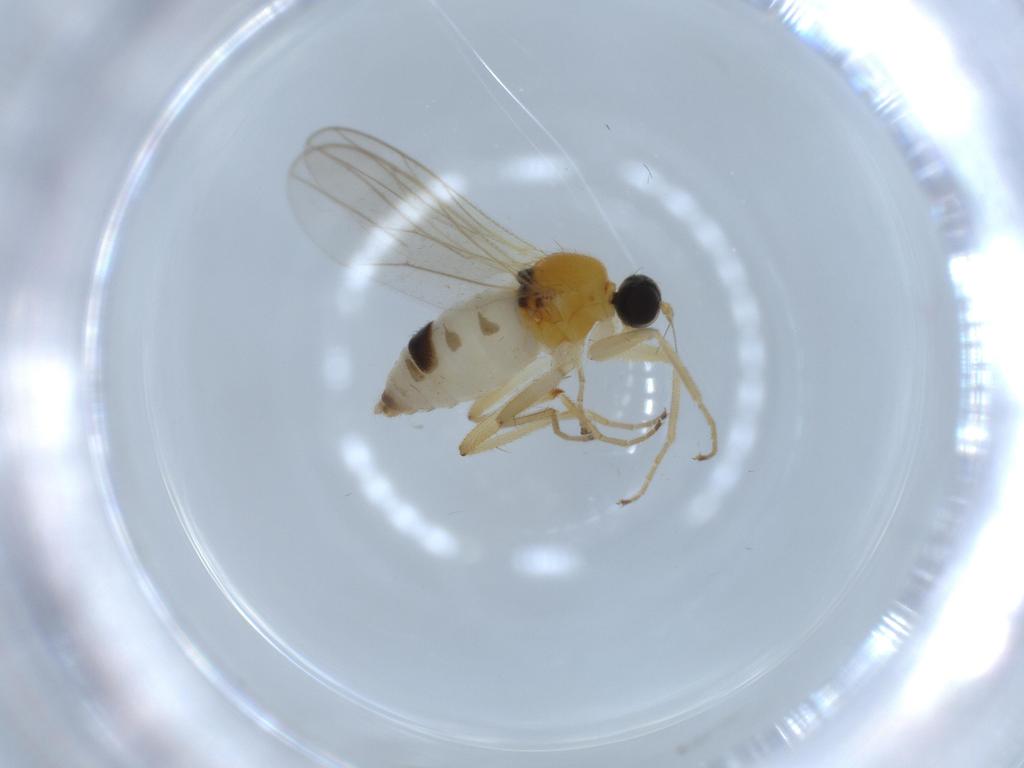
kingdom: Animalia
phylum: Arthropoda
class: Insecta
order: Diptera
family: Hybotidae
